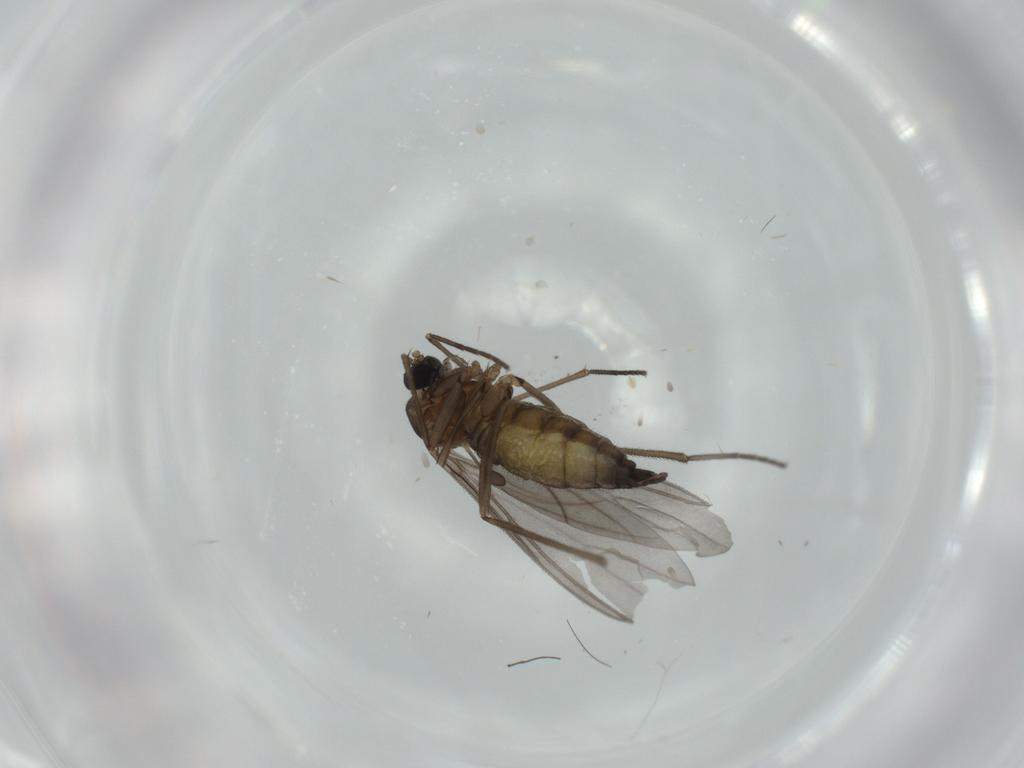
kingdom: Animalia
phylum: Arthropoda
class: Insecta
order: Diptera
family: Sciaridae
